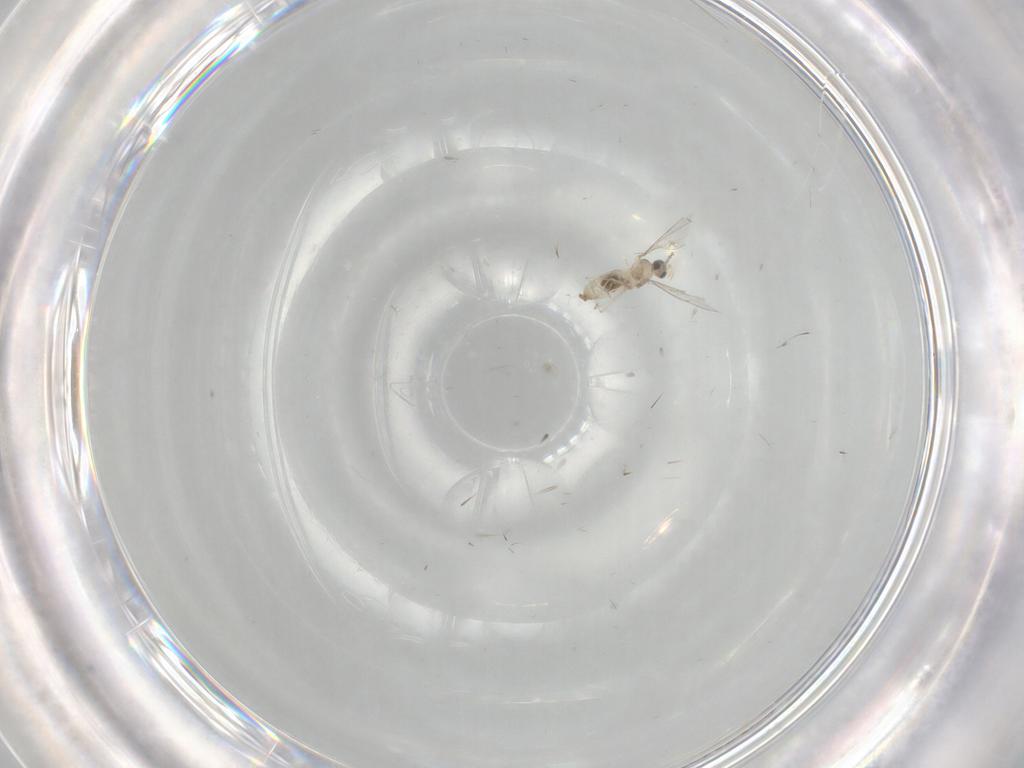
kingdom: Animalia
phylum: Arthropoda
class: Insecta
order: Diptera
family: Cecidomyiidae
